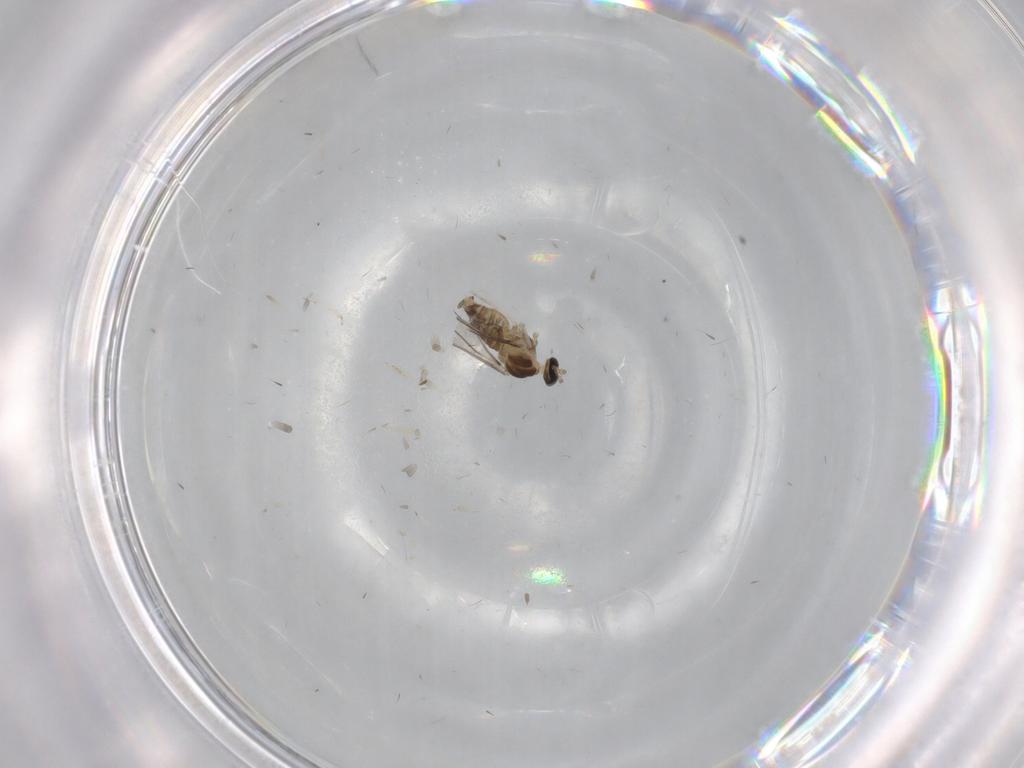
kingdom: Animalia
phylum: Arthropoda
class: Insecta
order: Diptera
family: Cecidomyiidae
